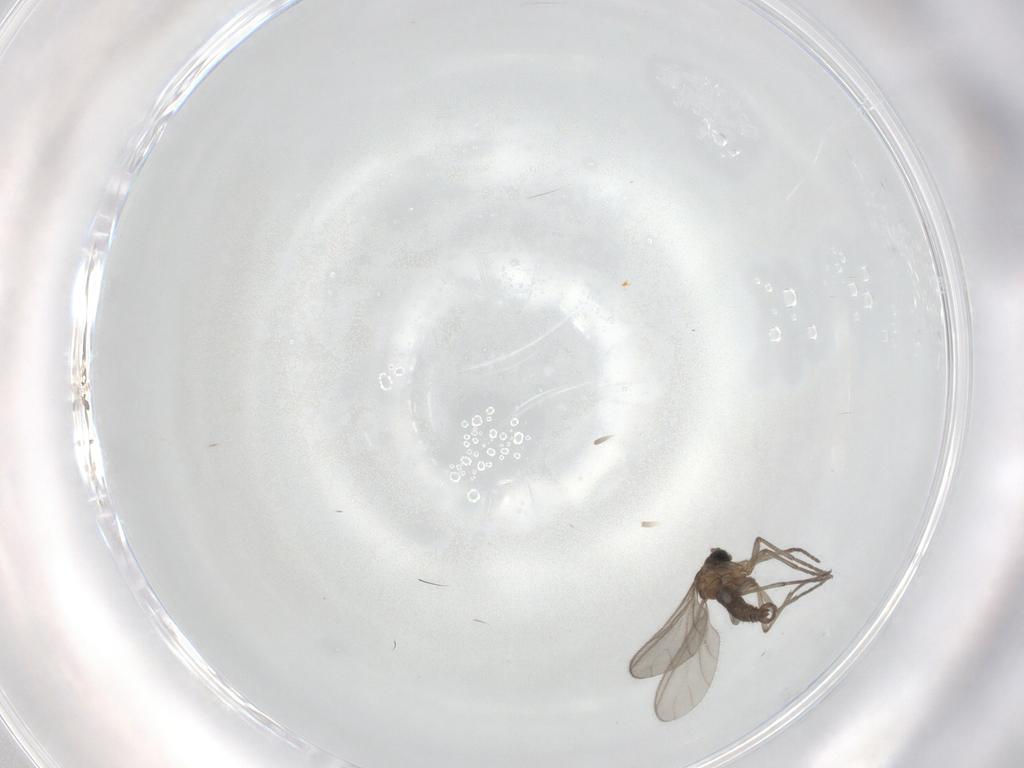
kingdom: Animalia
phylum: Arthropoda
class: Insecta
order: Diptera
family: Sciaridae
